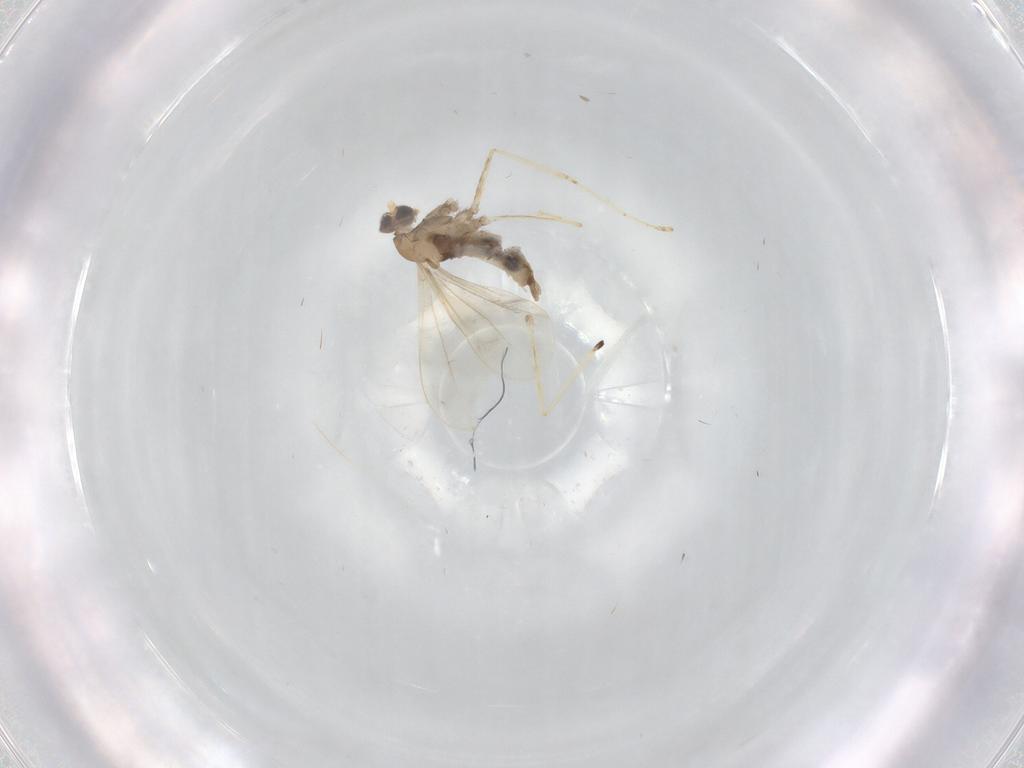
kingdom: Animalia
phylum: Arthropoda
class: Insecta
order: Diptera
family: Cecidomyiidae
